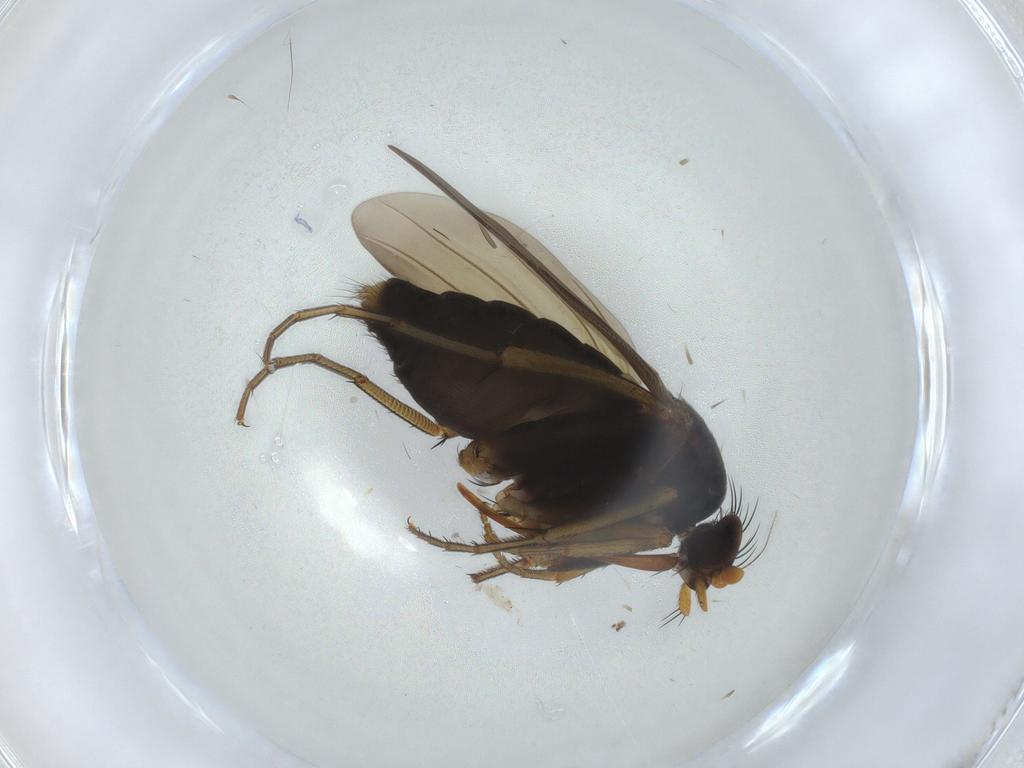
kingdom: Animalia
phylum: Arthropoda
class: Insecta
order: Diptera
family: Phoridae
